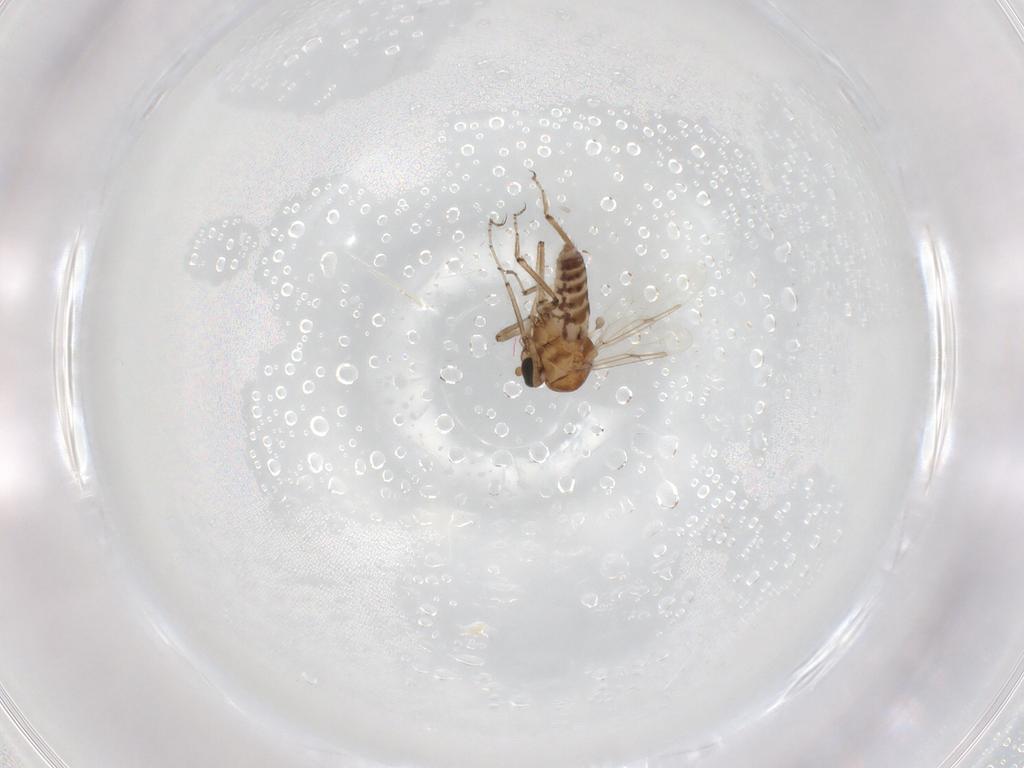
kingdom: Animalia
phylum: Arthropoda
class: Insecta
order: Diptera
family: Ceratopogonidae
